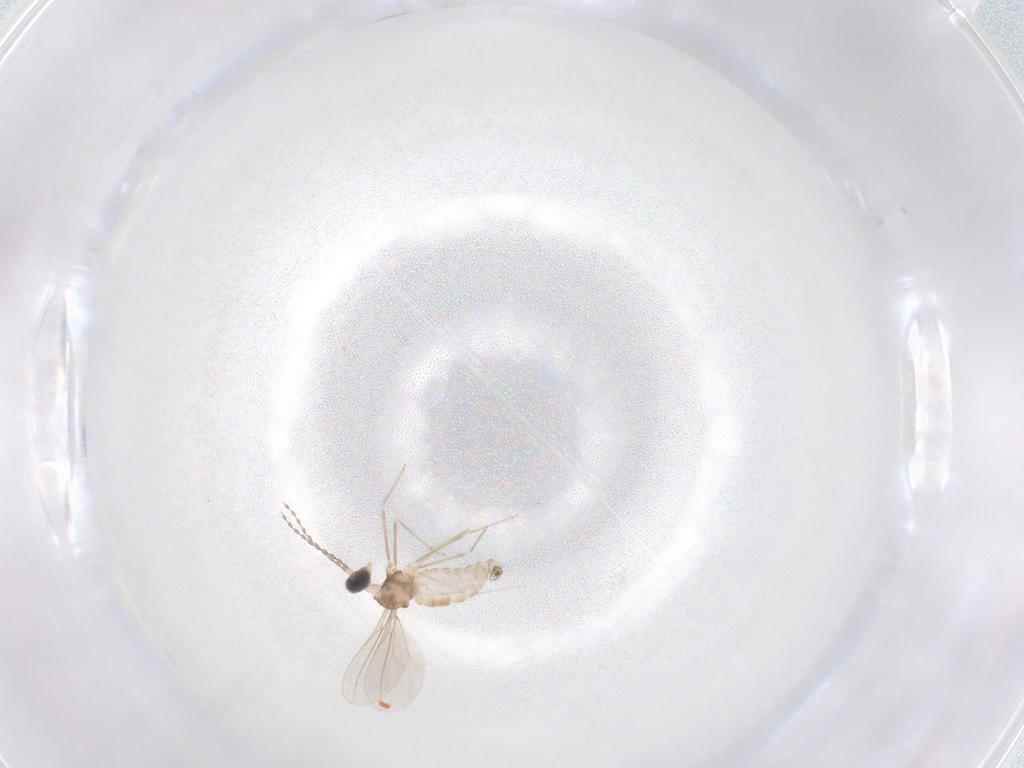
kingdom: Animalia
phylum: Arthropoda
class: Insecta
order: Diptera
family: Cecidomyiidae
